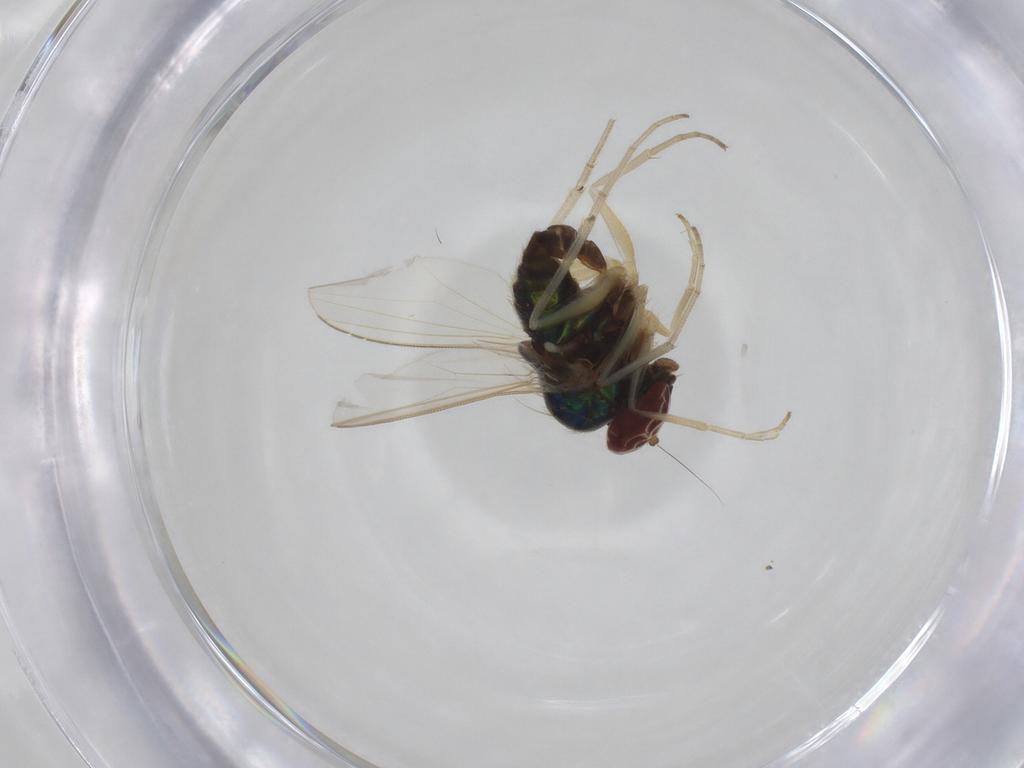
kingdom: Animalia
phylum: Arthropoda
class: Insecta
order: Diptera
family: Dolichopodidae
